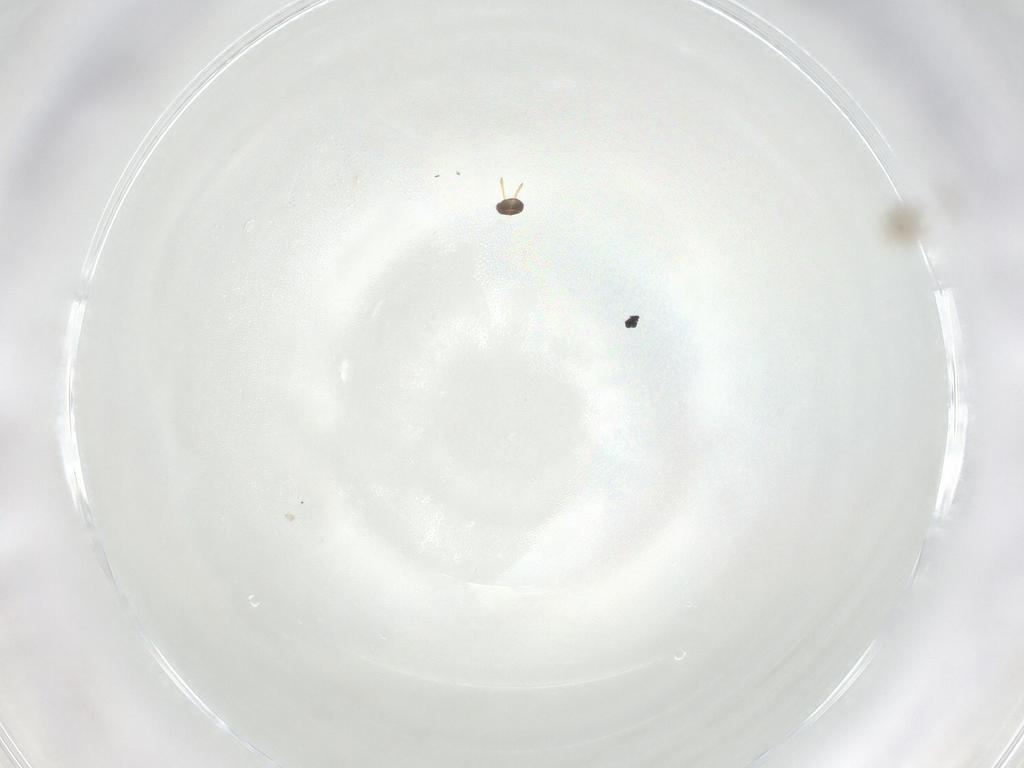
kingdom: Animalia
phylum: Arthropoda
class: Insecta
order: Hymenoptera
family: Aphelinidae
